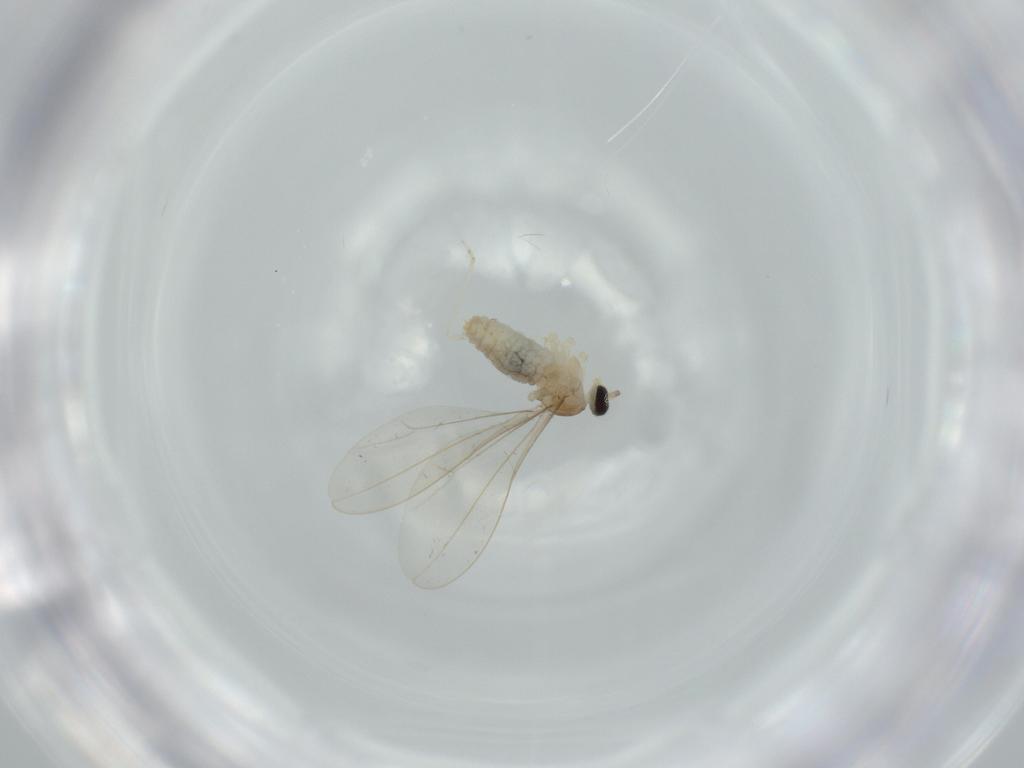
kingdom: Animalia
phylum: Arthropoda
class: Insecta
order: Diptera
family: Cecidomyiidae
